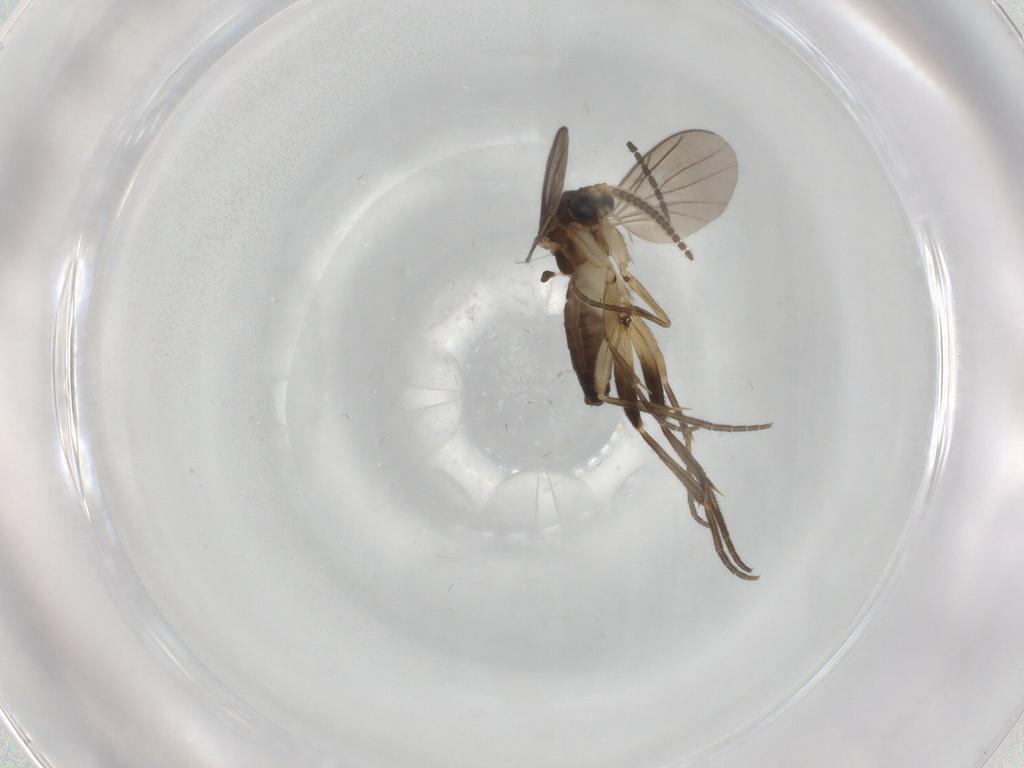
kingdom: Animalia
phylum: Arthropoda
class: Insecta
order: Diptera
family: Mycetophilidae
